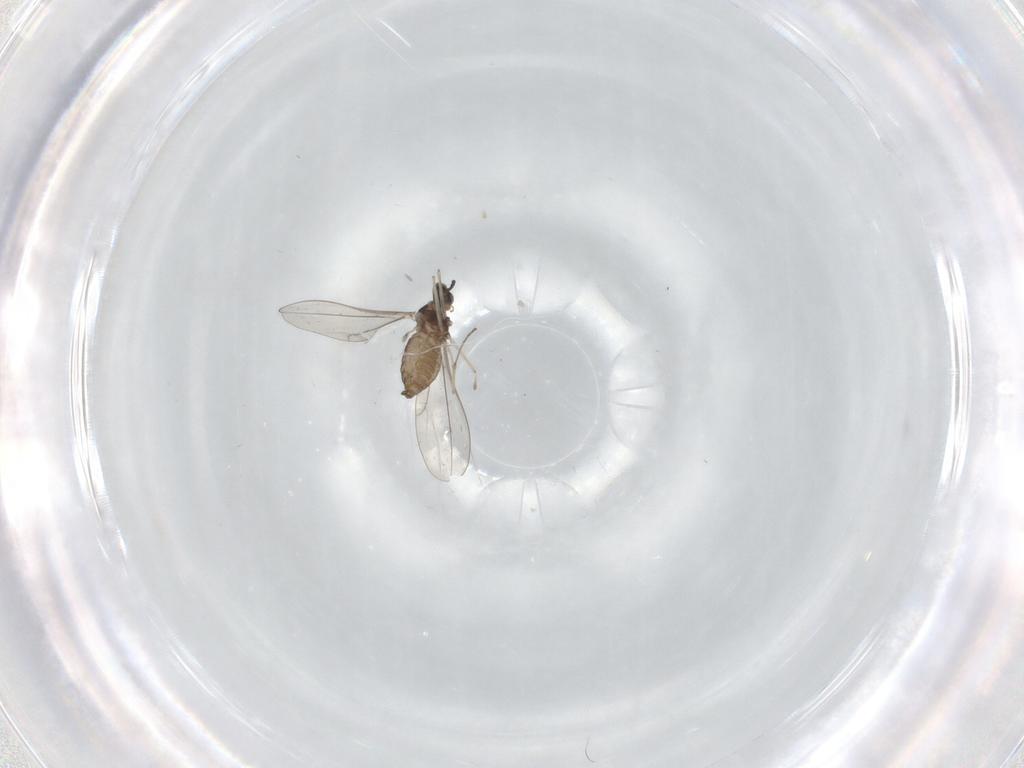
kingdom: Animalia
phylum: Arthropoda
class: Insecta
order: Diptera
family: Cecidomyiidae
